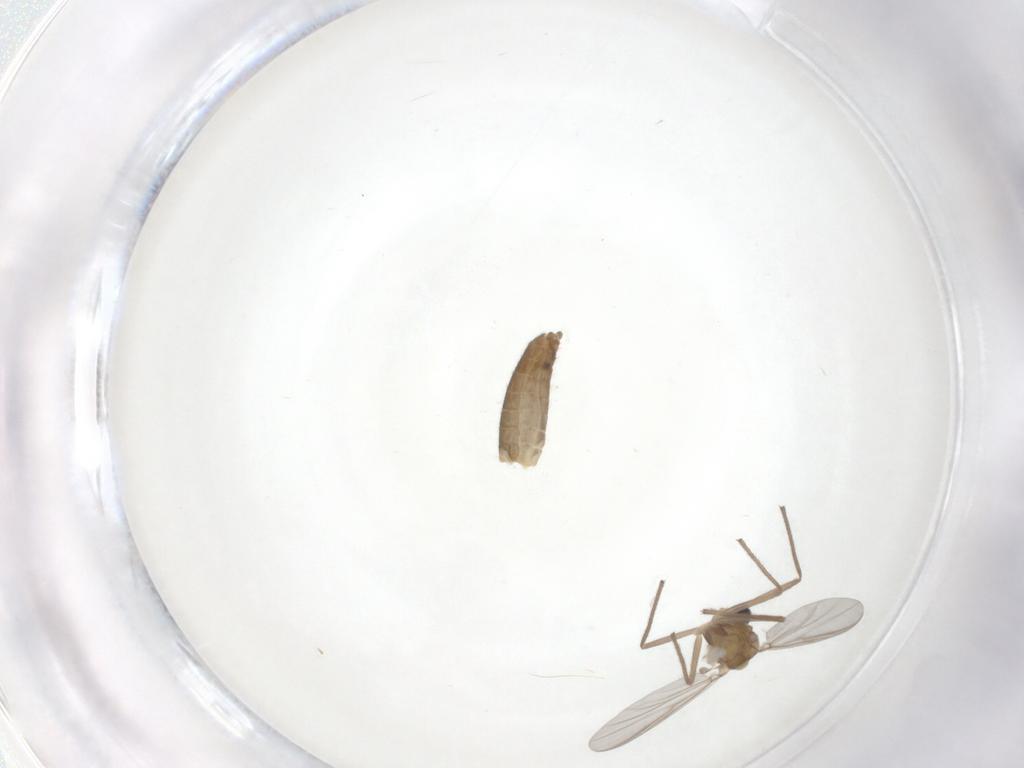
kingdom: Animalia
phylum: Arthropoda
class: Insecta
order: Diptera
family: Chironomidae
